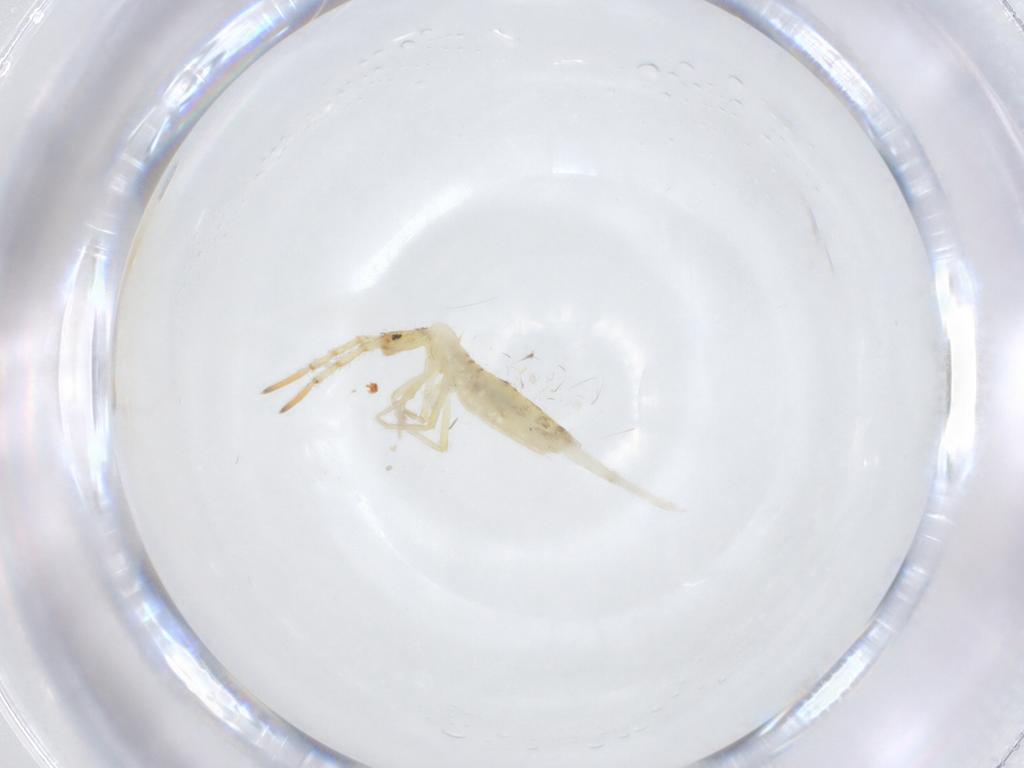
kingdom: Animalia
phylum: Arthropoda
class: Collembola
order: Entomobryomorpha
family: Entomobryidae
